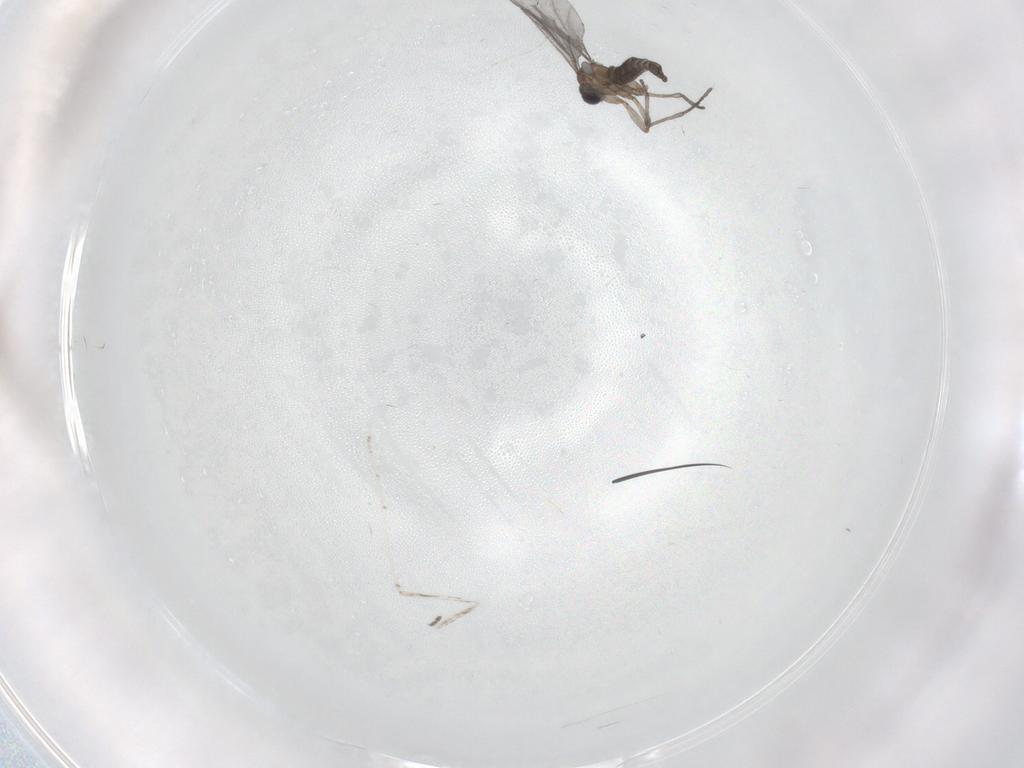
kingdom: Animalia
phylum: Arthropoda
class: Insecta
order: Diptera
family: Sciaridae
